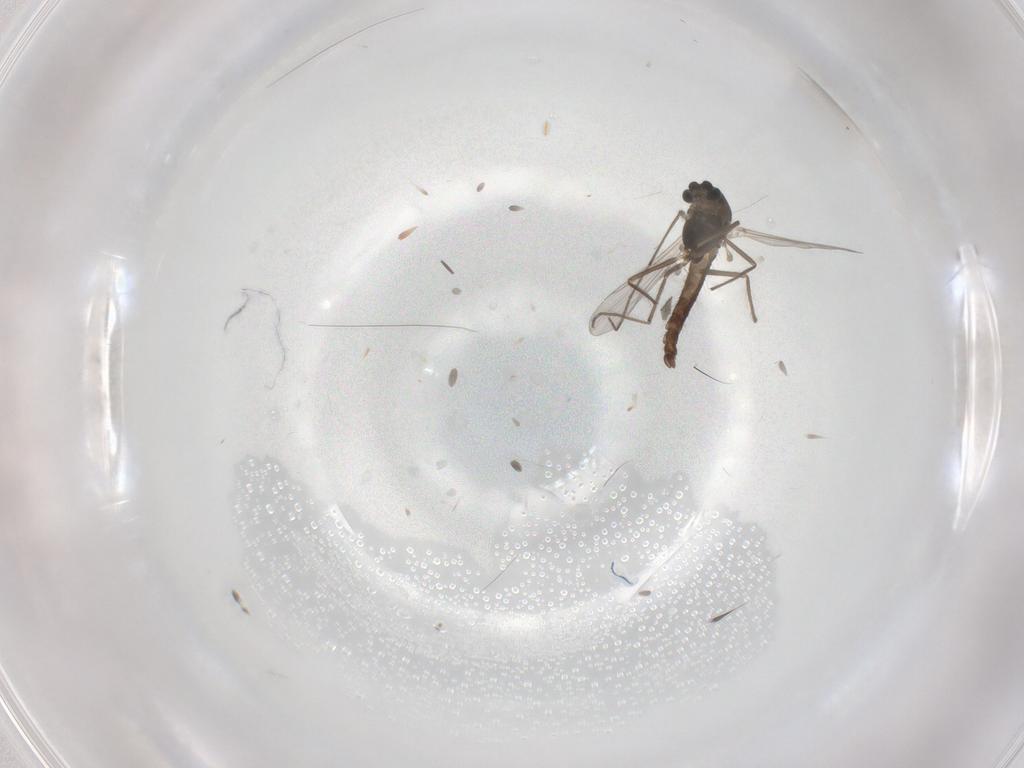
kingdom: Animalia
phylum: Arthropoda
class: Insecta
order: Diptera
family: Chironomidae
